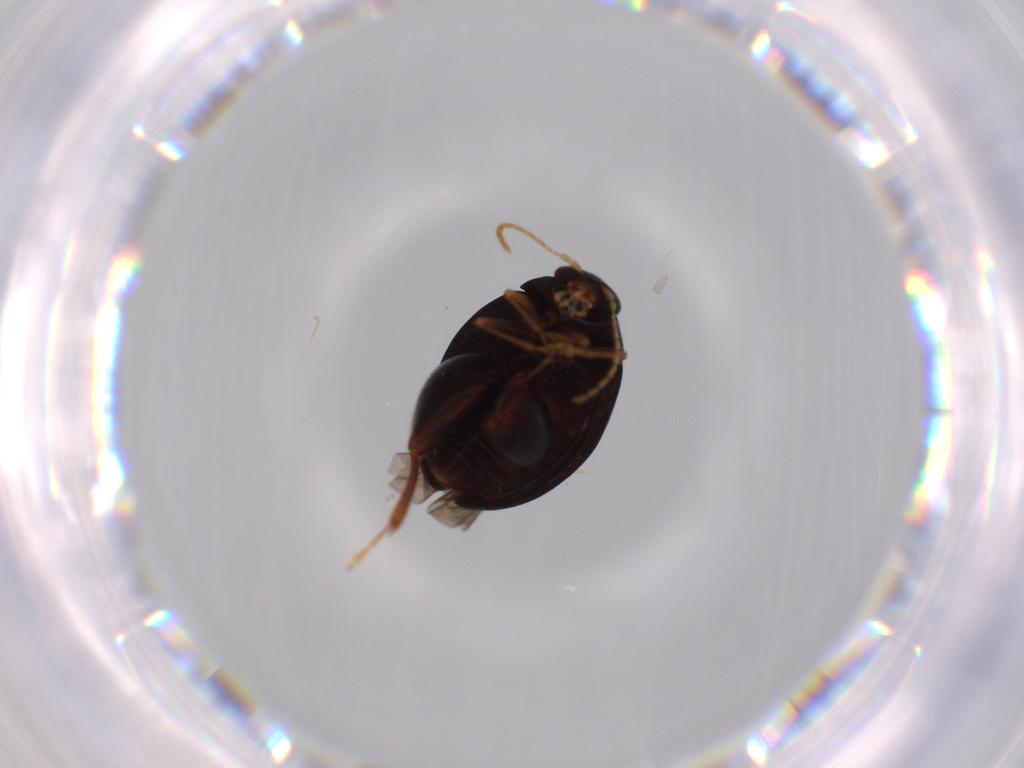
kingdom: Animalia
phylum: Arthropoda
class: Insecta
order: Coleoptera
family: Chrysomelidae
